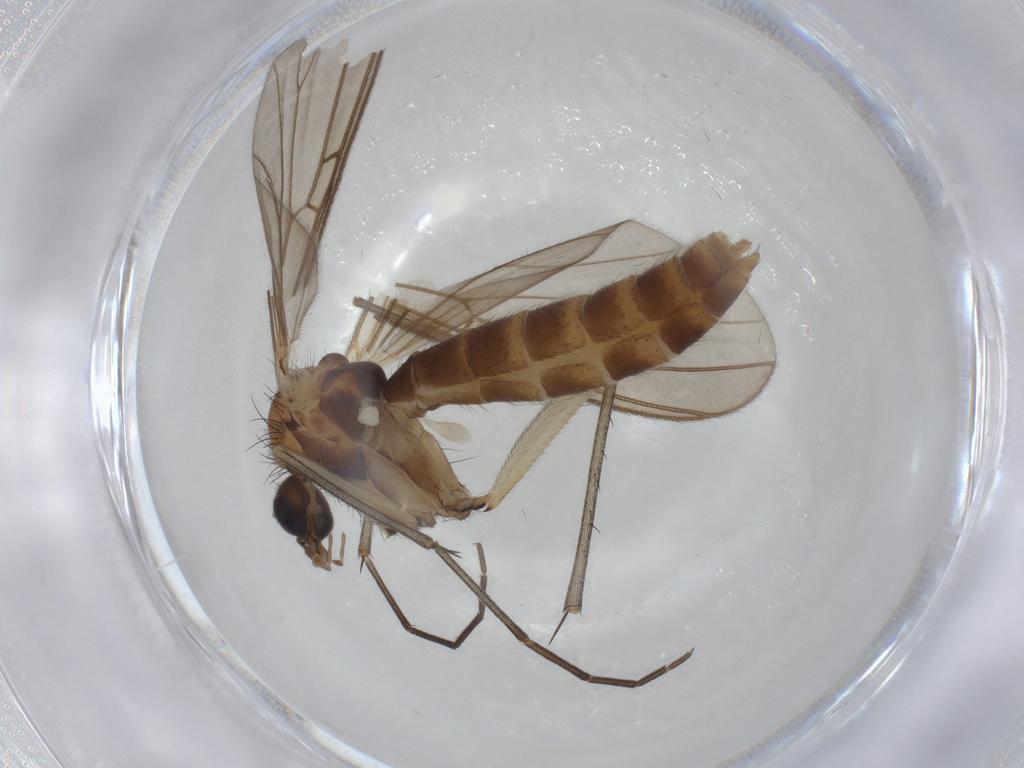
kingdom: Animalia
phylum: Arthropoda
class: Insecta
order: Diptera
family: Mycetophilidae
